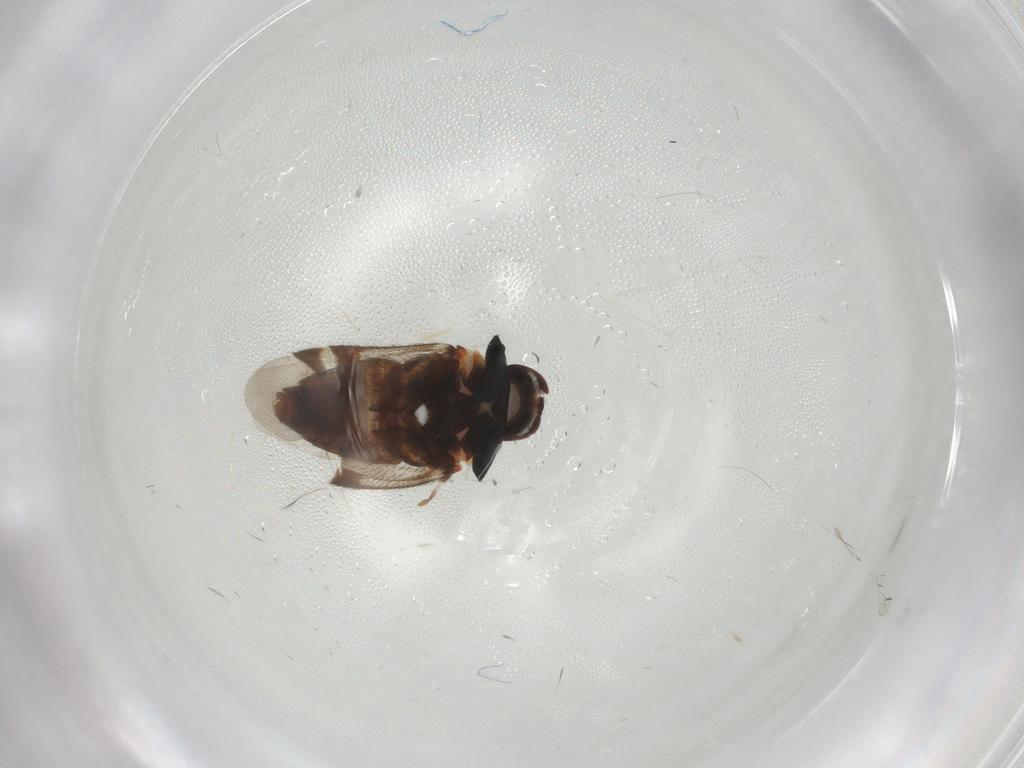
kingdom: Animalia
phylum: Arthropoda
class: Insecta
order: Hemiptera
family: Miridae
